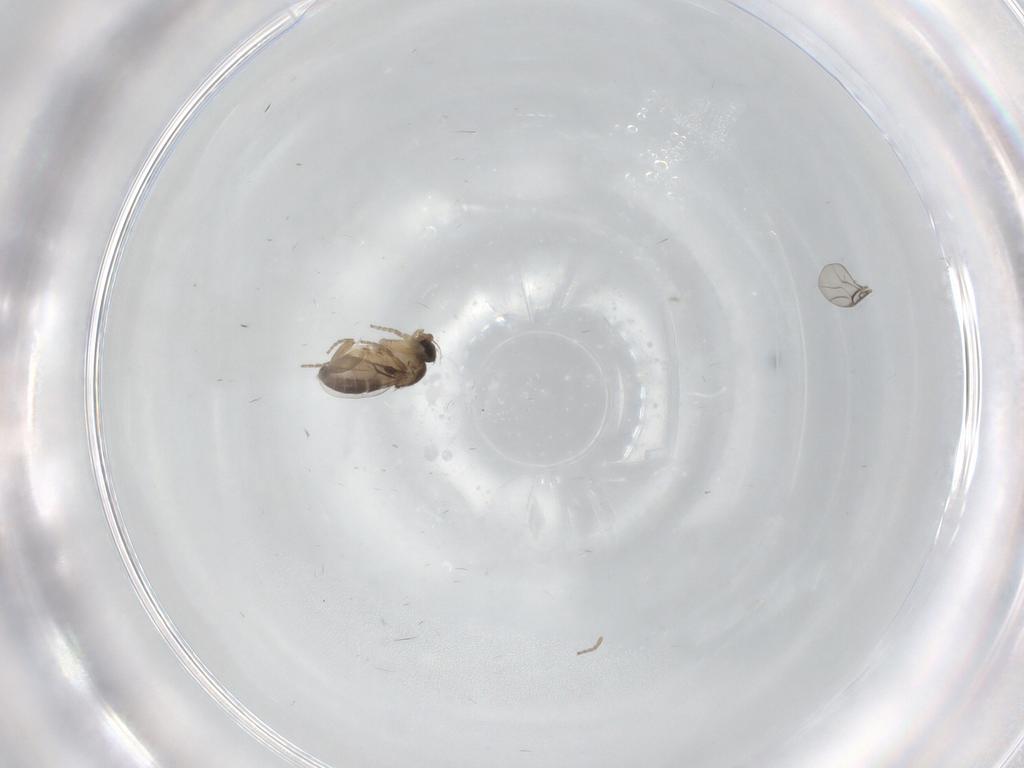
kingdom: Animalia
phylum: Arthropoda
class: Insecta
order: Diptera
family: Phoridae
